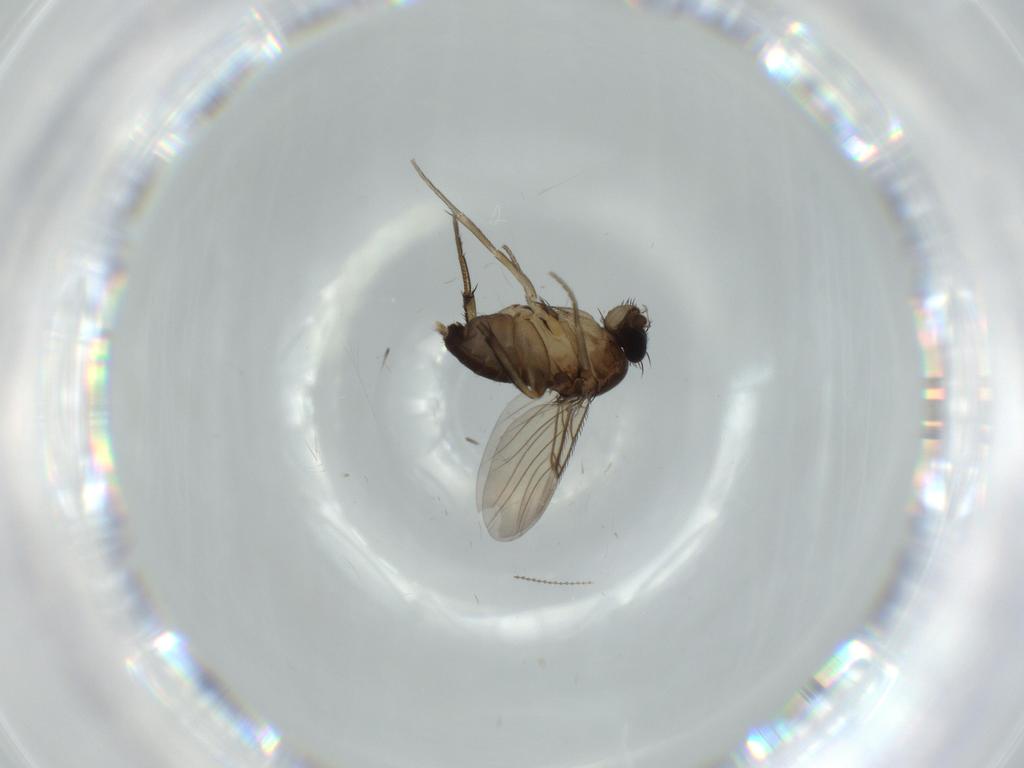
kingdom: Animalia
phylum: Arthropoda
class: Insecta
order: Diptera
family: Phoridae
